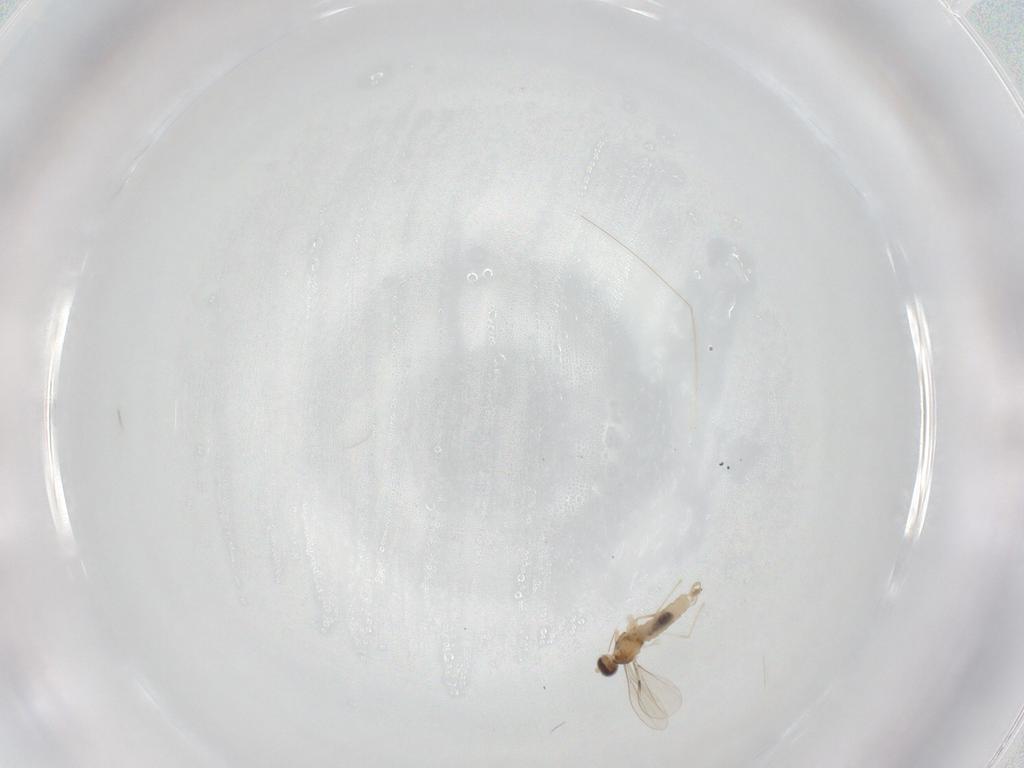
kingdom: Animalia
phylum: Arthropoda
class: Insecta
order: Diptera
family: Cecidomyiidae
